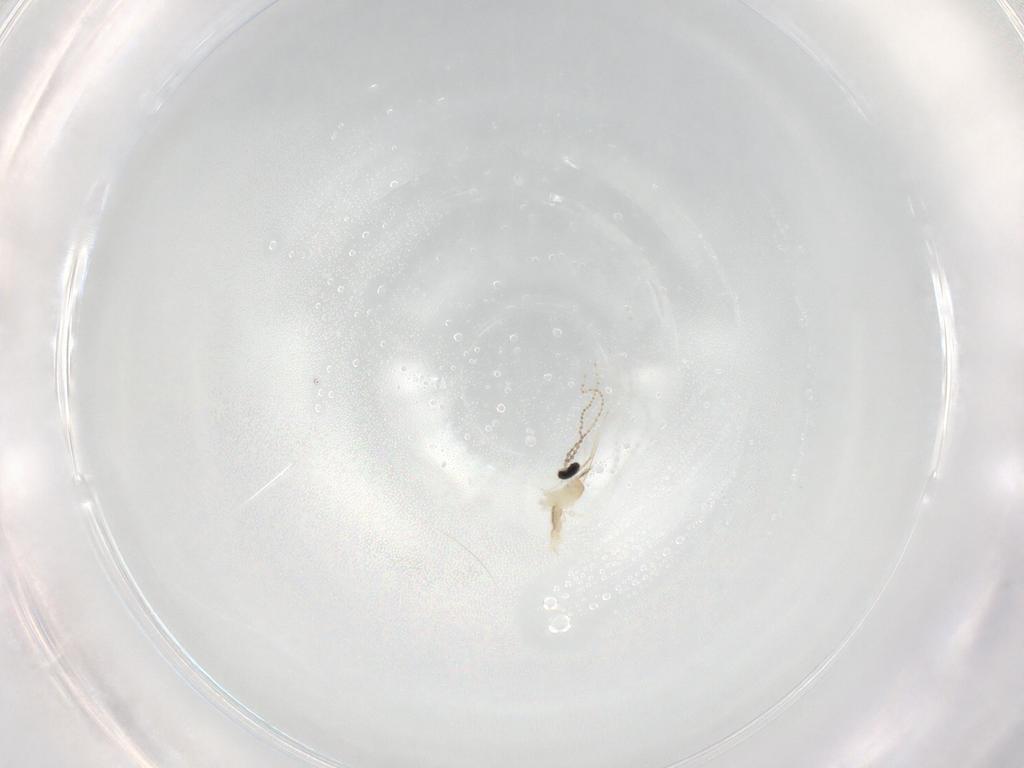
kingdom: Animalia
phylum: Arthropoda
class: Insecta
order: Diptera
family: Cecidomyiidae
